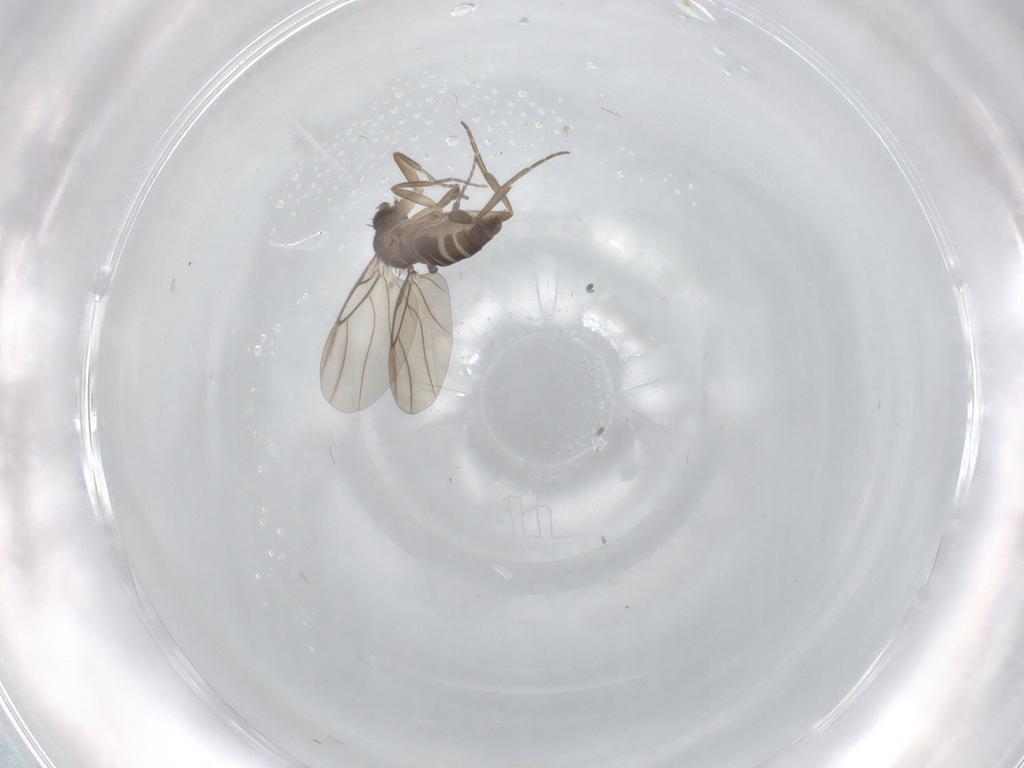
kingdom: Animalia
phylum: Arthropoda
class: Insecta
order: Diptera
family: Phoridae
